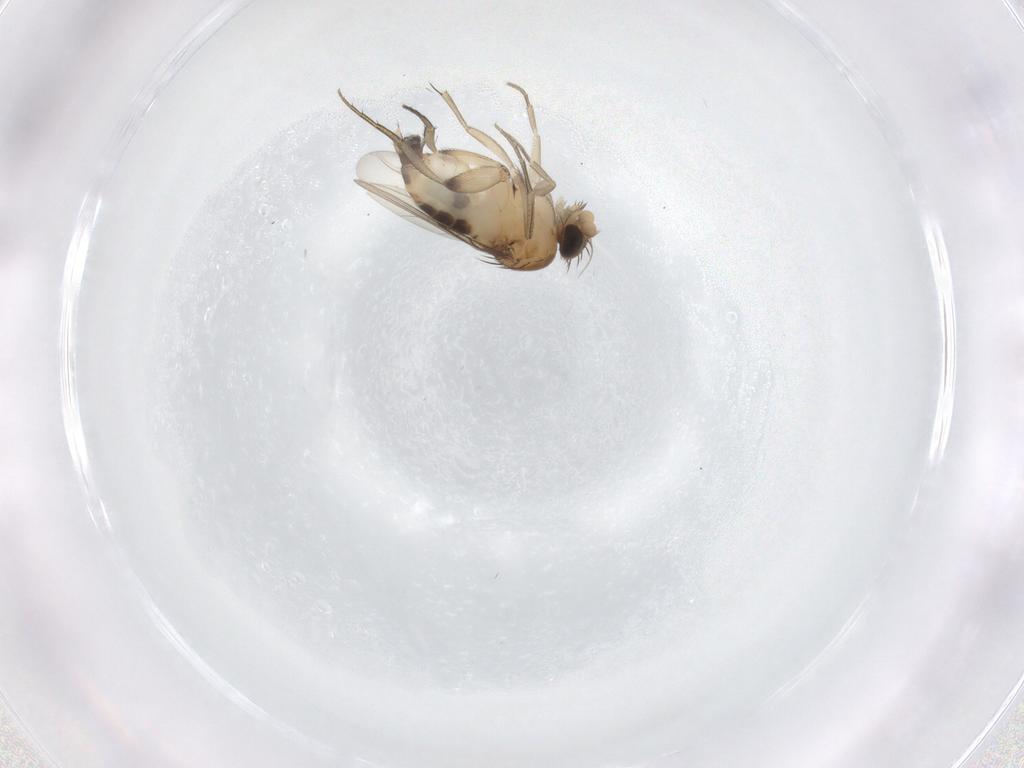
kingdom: Animalia
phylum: Arthropoda
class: Insecta
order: Diptera
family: Phoridae
